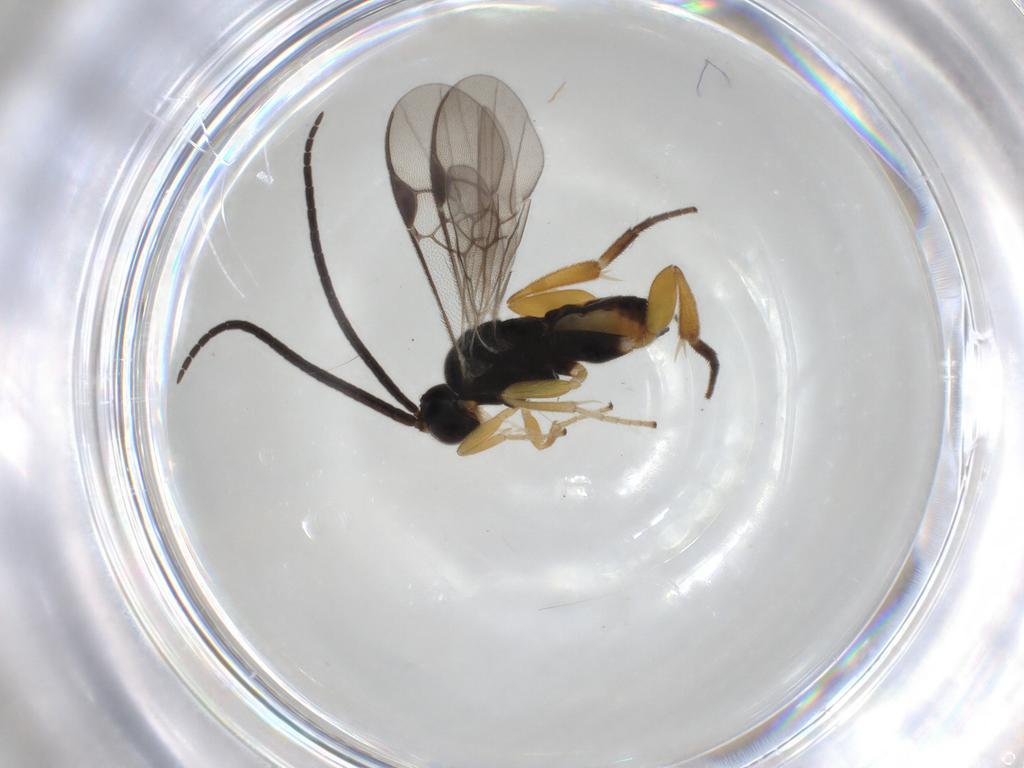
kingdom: Animalia
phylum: Arthropoda
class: Insecta
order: Hymenoptera
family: Braconidae
